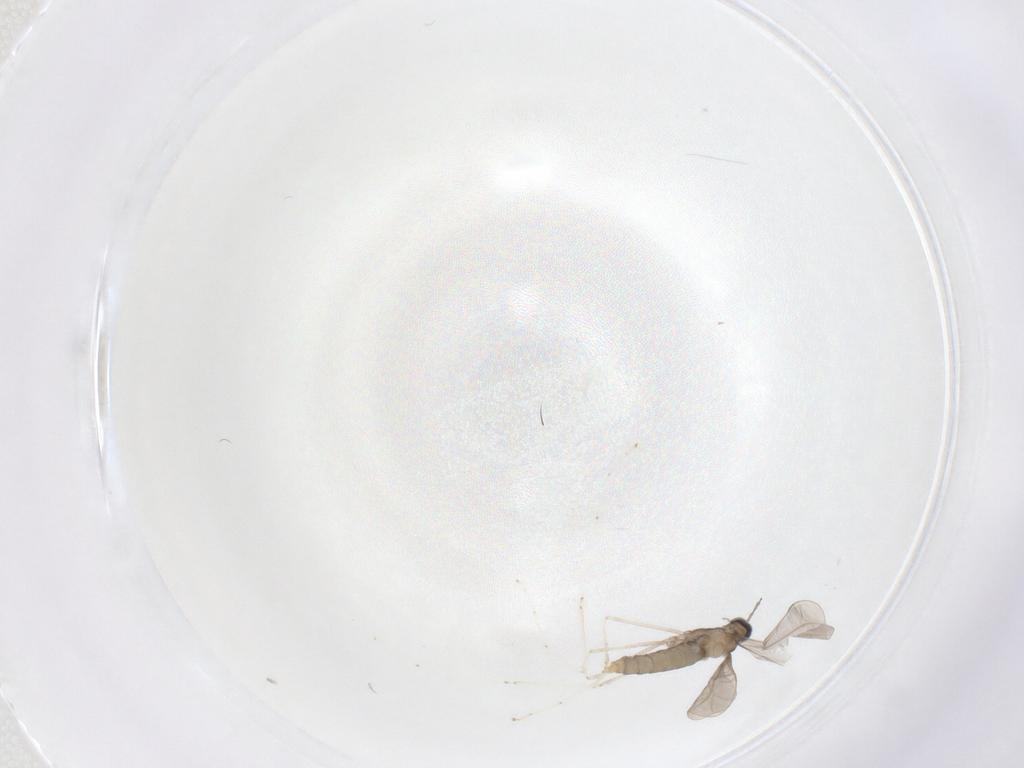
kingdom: Animalia
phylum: Arthropoda
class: Insecta
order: Diptera
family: Cecidomyiidae
